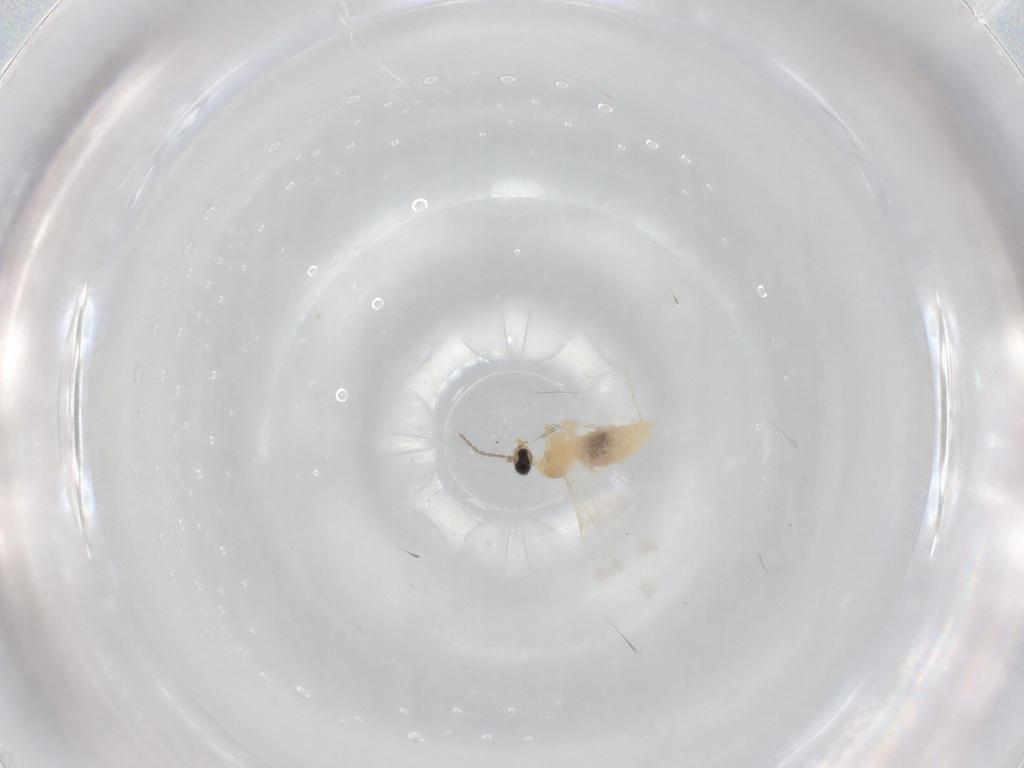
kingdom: Animalia
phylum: Arthropoda
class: Insecta
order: Diptera
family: Cecidomyiidae
